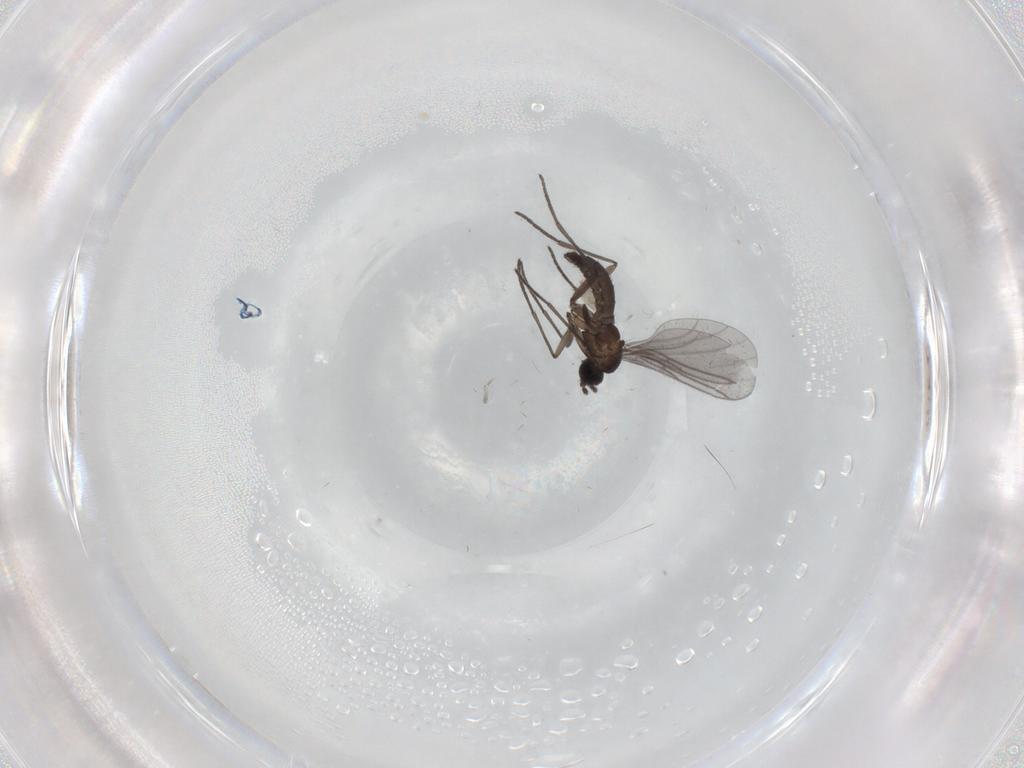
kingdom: Animalia
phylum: Arthropoda
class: Insecta
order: Diptera
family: Sciaridae
